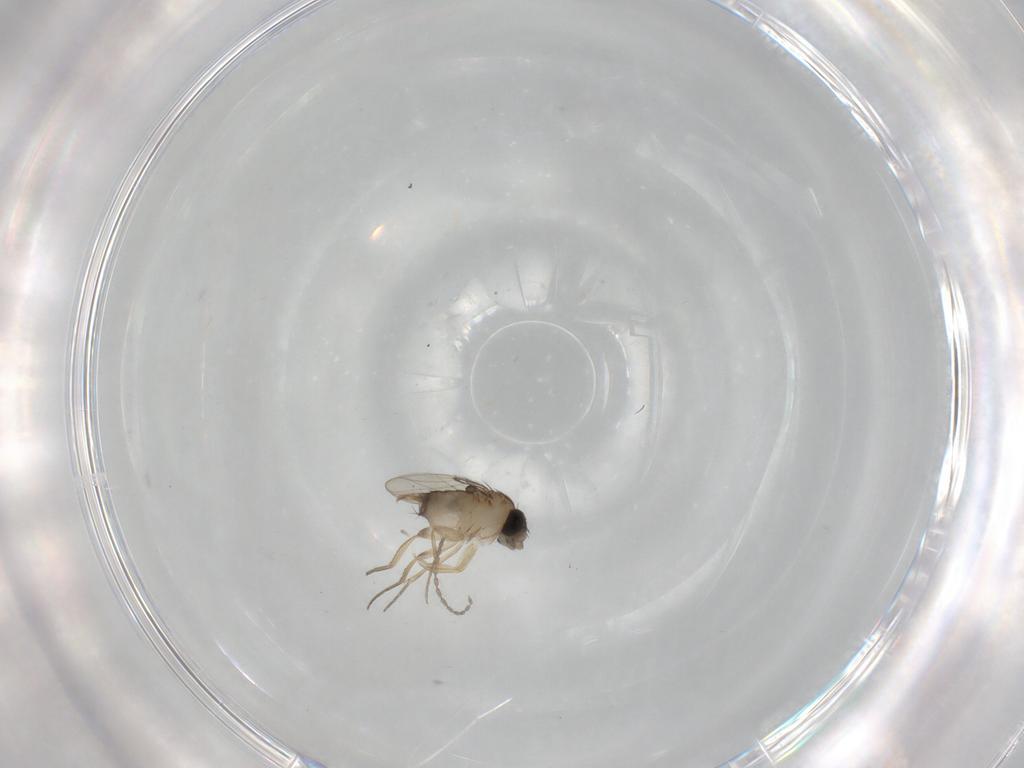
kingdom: Animalia
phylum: Arthropoda
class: Insecta
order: Diptera
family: Phoridae
